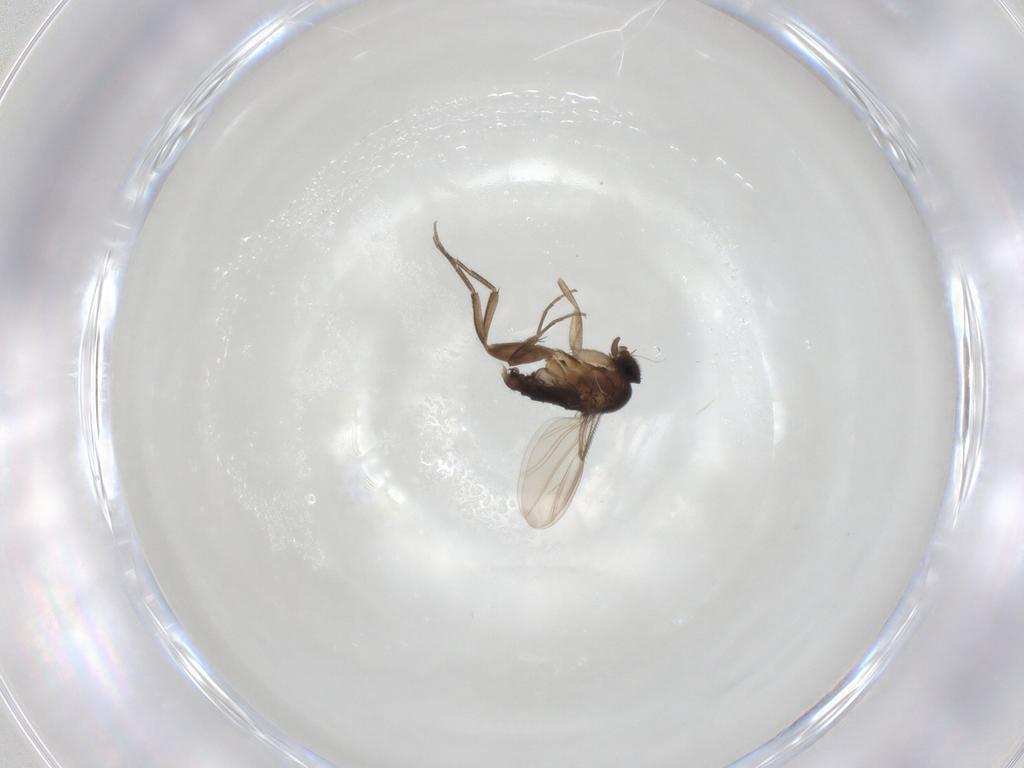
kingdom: Animalia
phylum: Arthropoda
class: Insecta
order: Diptera
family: Phoridae
